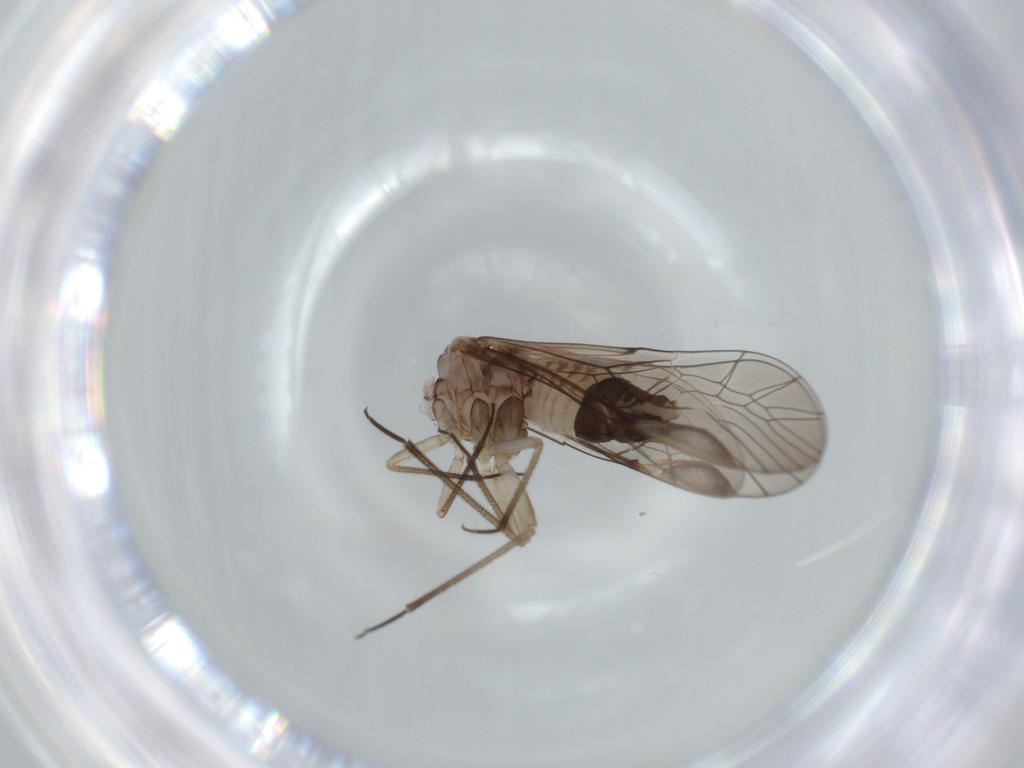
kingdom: Animalia
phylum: Arthropoda
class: Insecta
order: Psocodea
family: Psocidae
